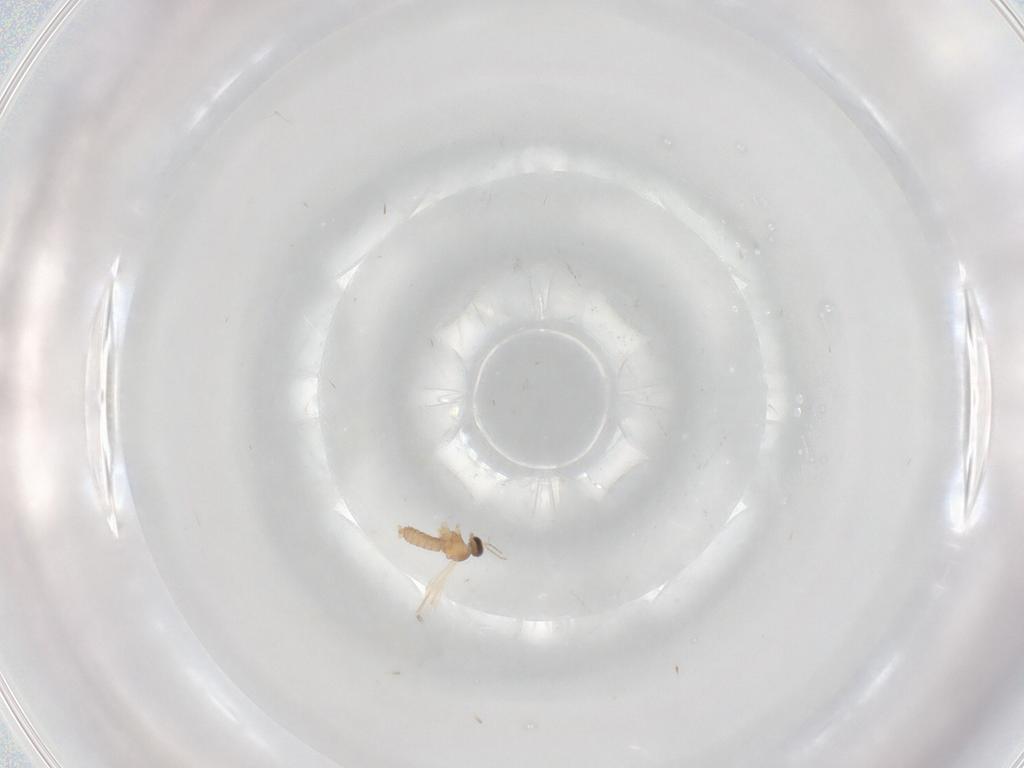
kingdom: Animalia
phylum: Arthropoda
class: Insecta
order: Diptera
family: Cecidomyiidae
